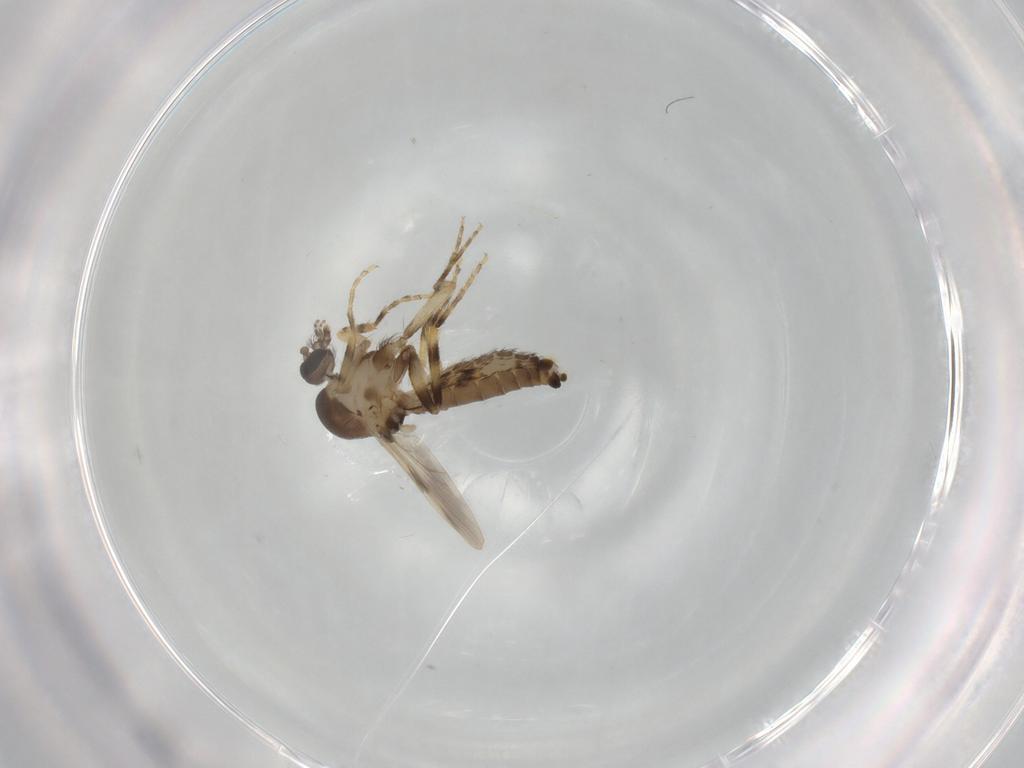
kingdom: Animalia
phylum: Arthropoda
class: Insecta
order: Diptera
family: Ceratopogonidae
